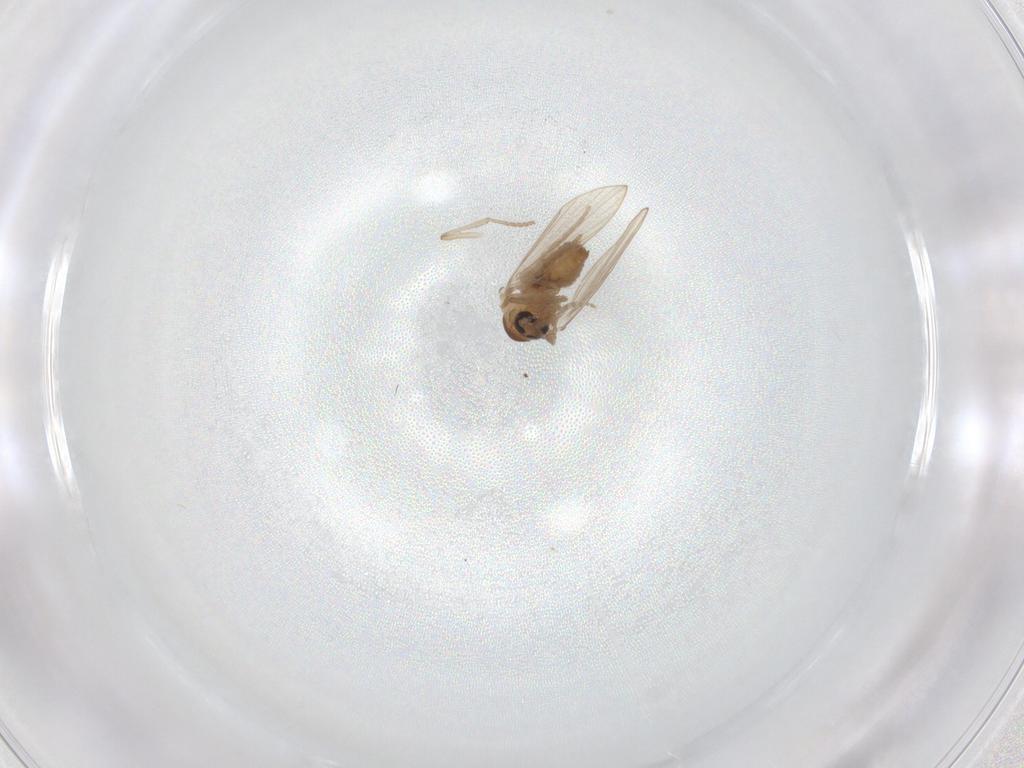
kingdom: Animalia
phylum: Arthropoda
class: Insecta
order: Diptera
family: Psychodidae
